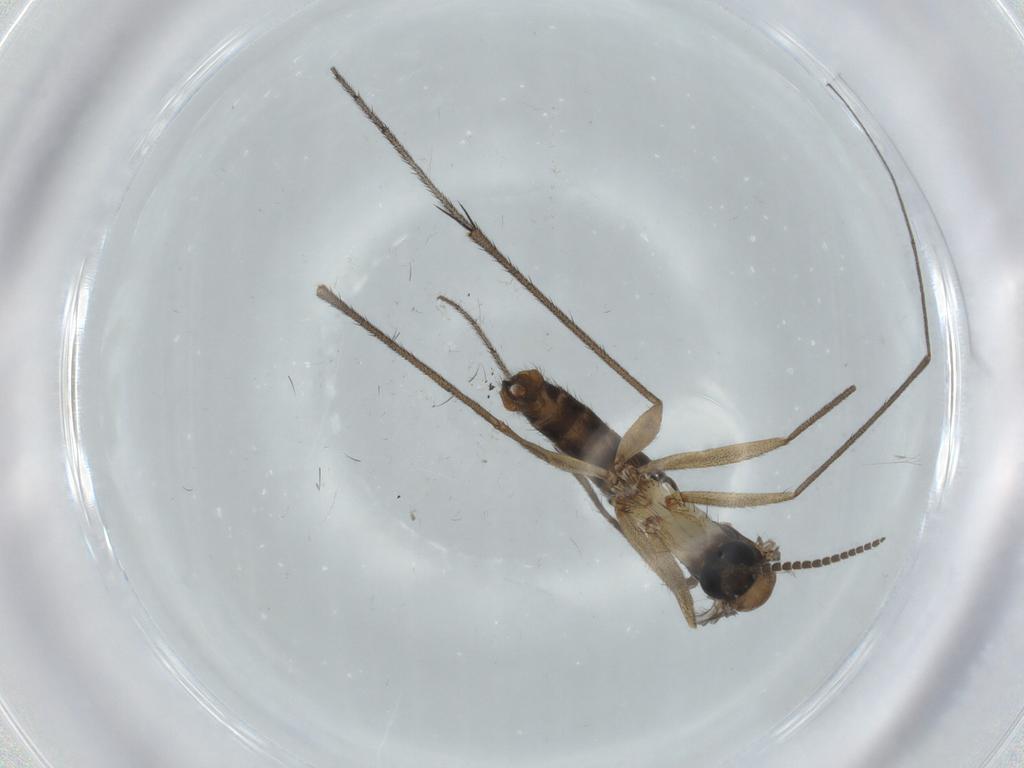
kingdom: Animalia
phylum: Arthropoda
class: Insecta
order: Diptera
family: Ditomyiidae
